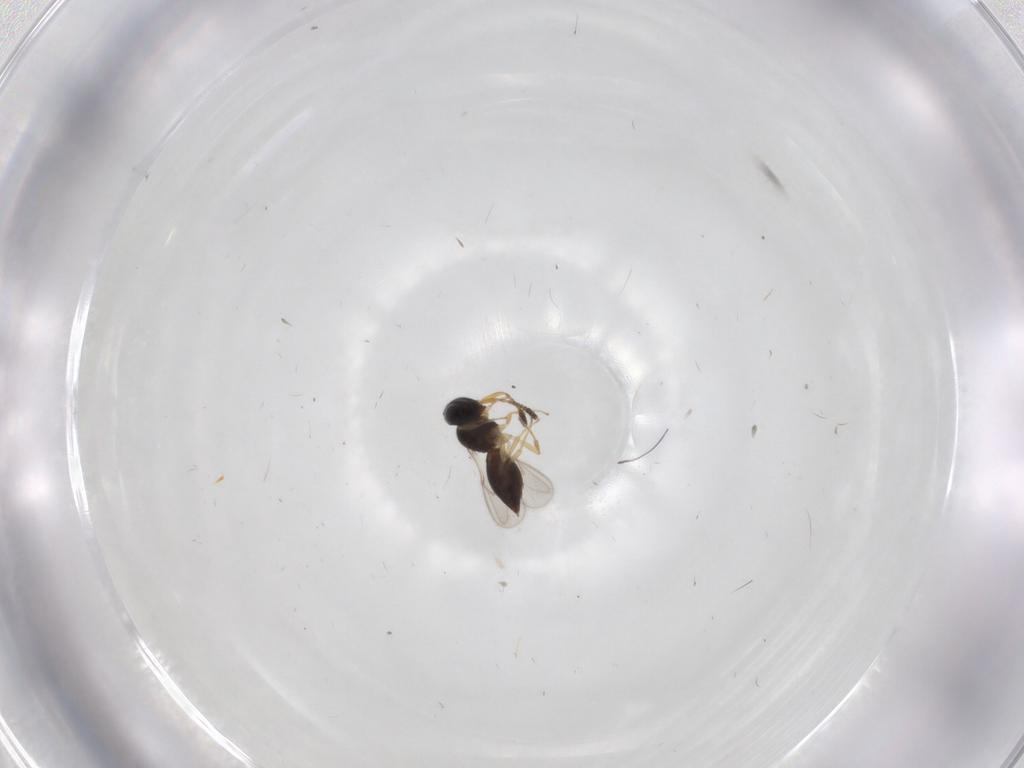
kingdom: Animalia
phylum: Arthropoda
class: Insecta
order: Hymenoptera
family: Scelionidae
